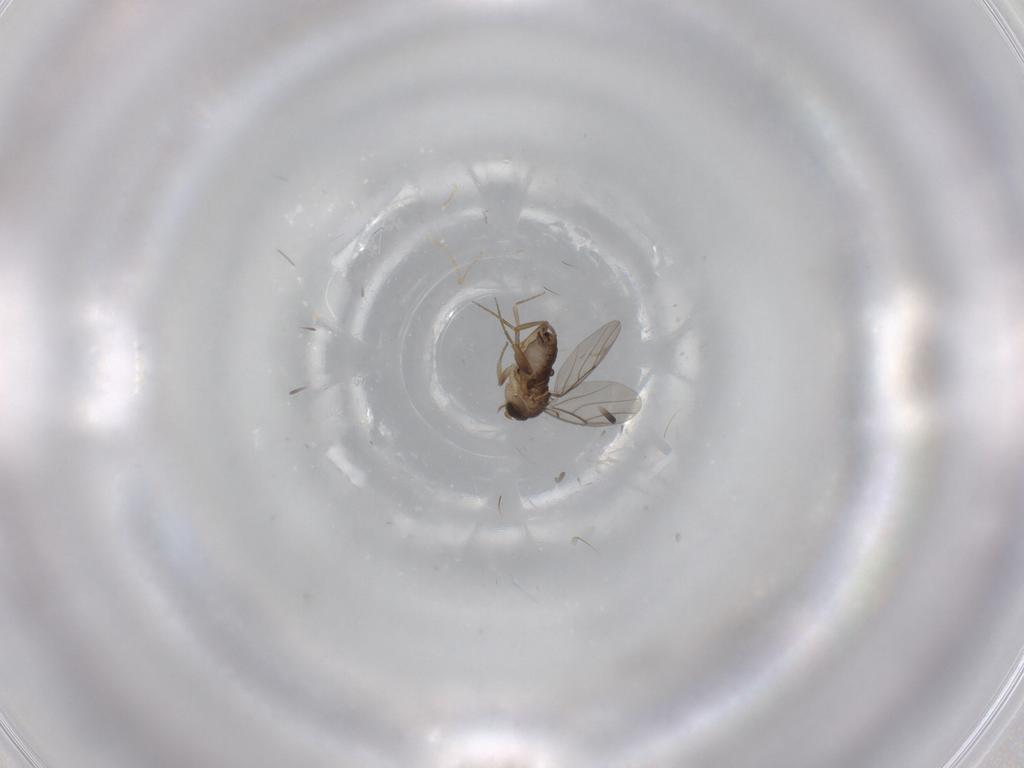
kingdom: Animalia
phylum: Arthropoda
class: Insecta
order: Diptera
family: Cecidomyiidae
